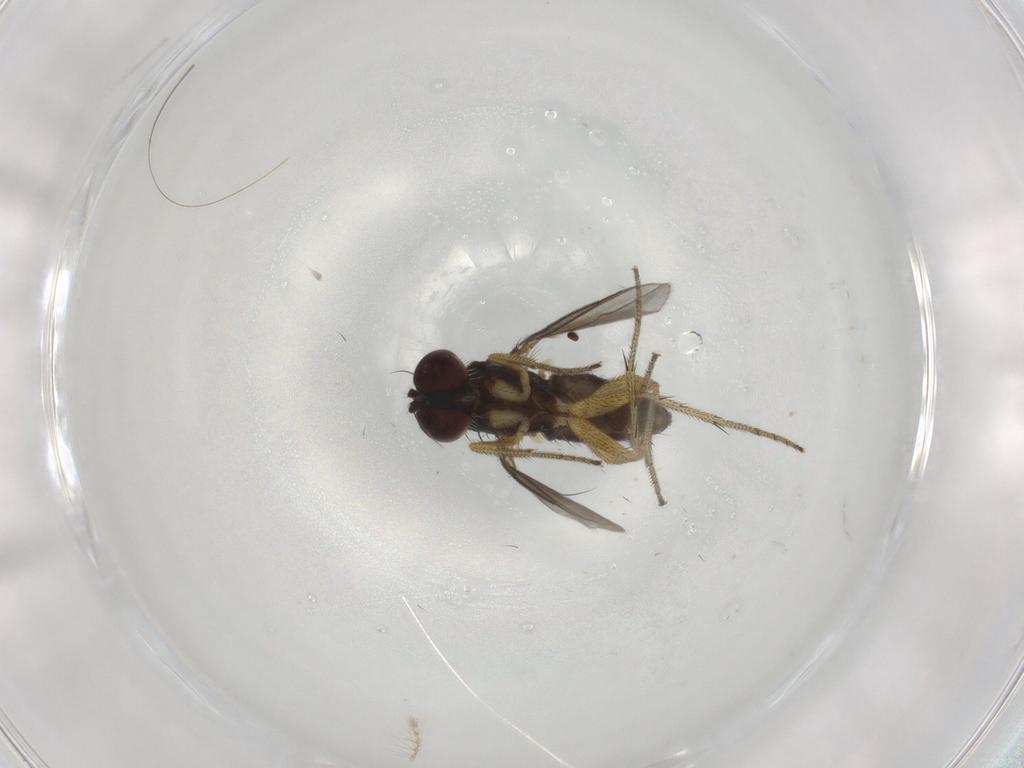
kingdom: Animalia
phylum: Arthropoda
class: Insecta
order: Diptera
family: Dolichopodidae
